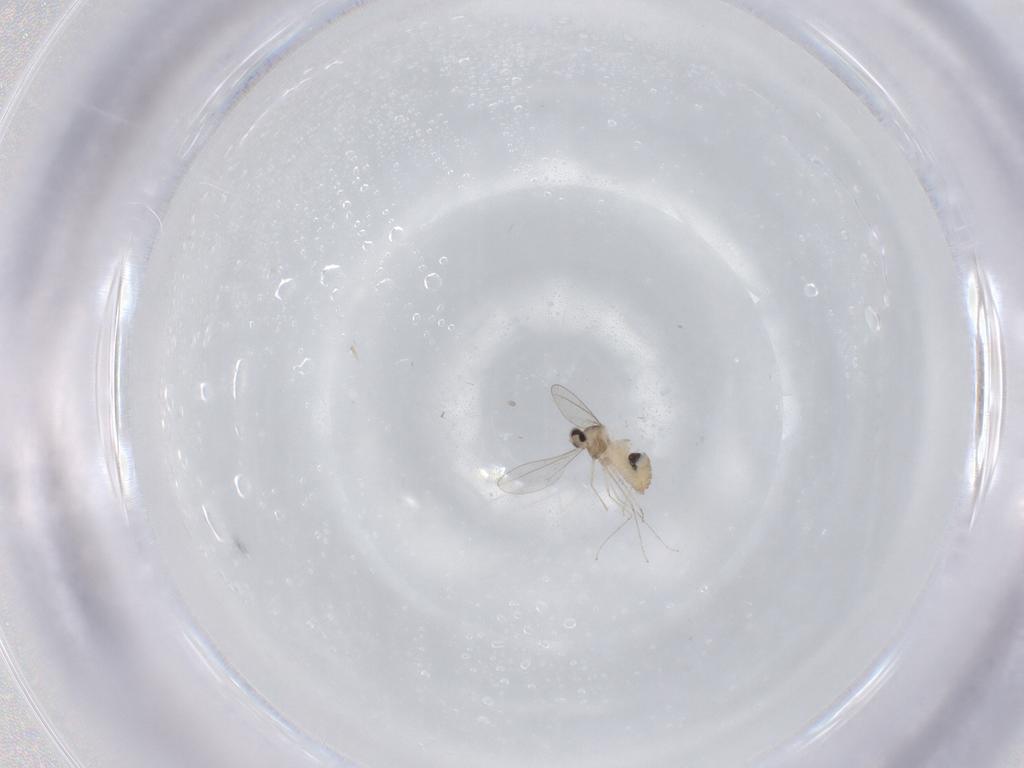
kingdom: Animalia
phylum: Arthropoda
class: Insecta
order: Diptera
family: Cecidomyiidae
